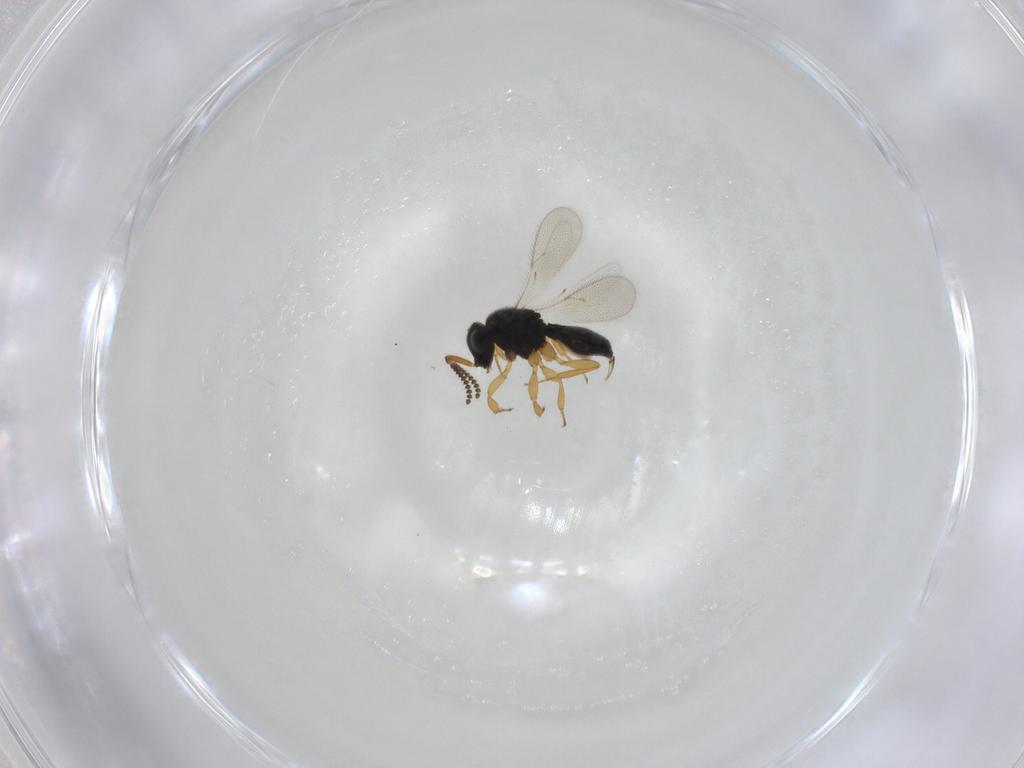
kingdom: Animalia
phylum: Arthropoda
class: Insecta
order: Hymenoptera
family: Scelionidae
